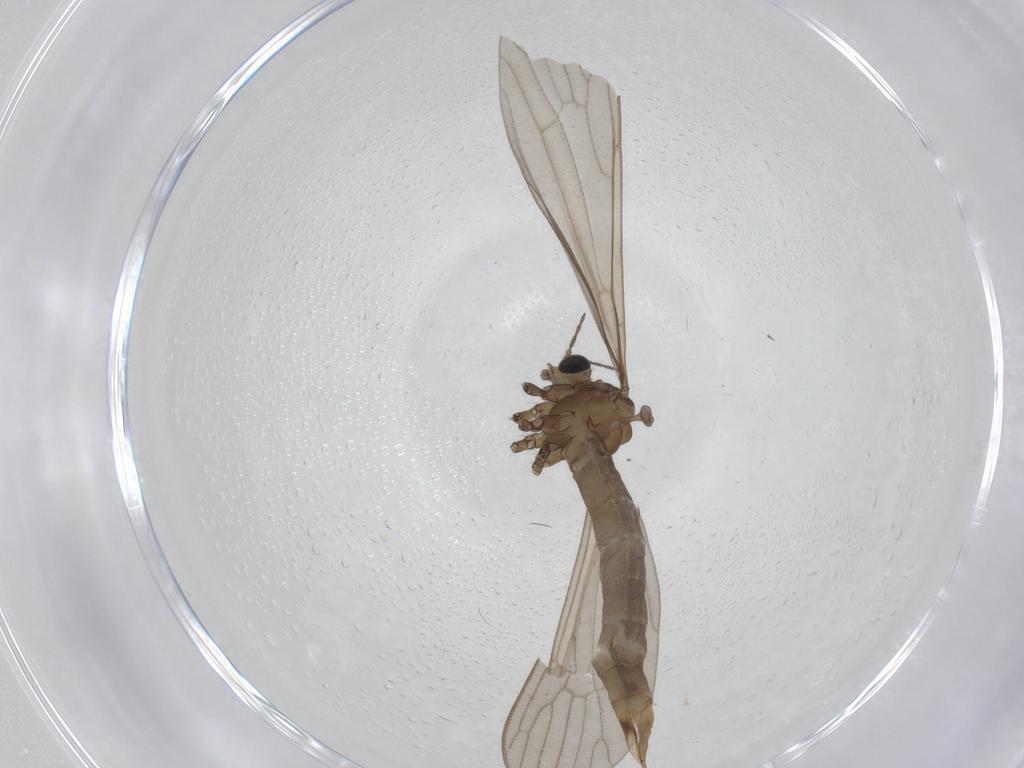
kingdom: Animalia
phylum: Arthropoda
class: Insecta
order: Diptera
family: Limoniidae
